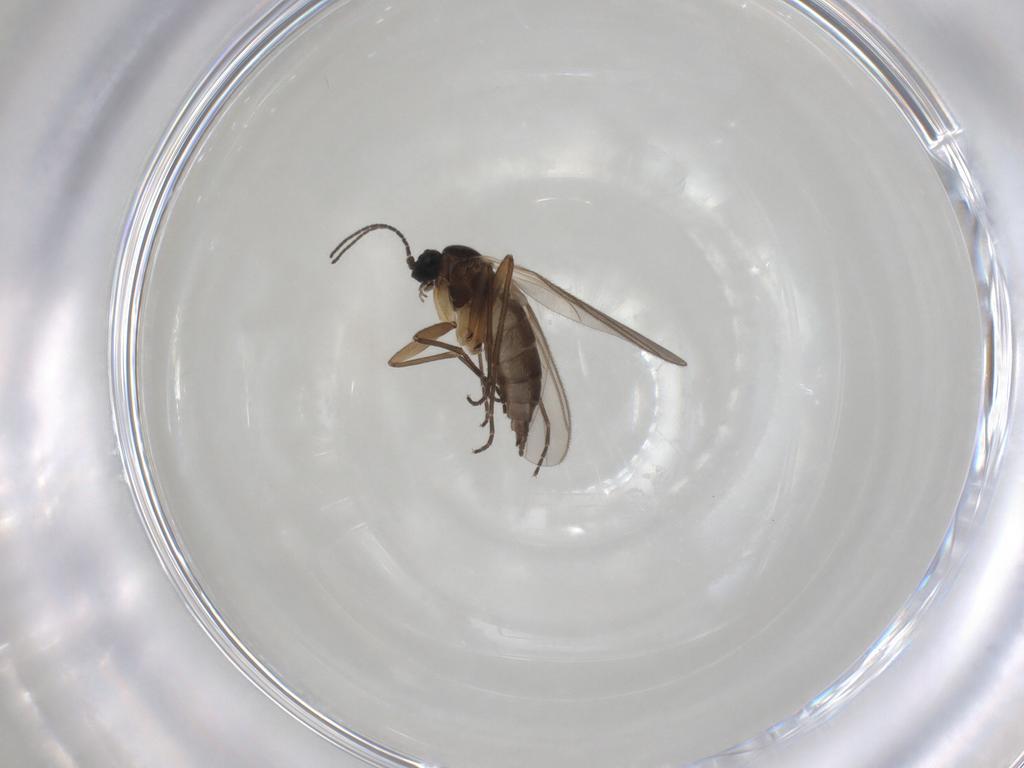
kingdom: Animalia
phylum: Arthropoda
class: Insecta
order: Diptera
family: Sciaridae
